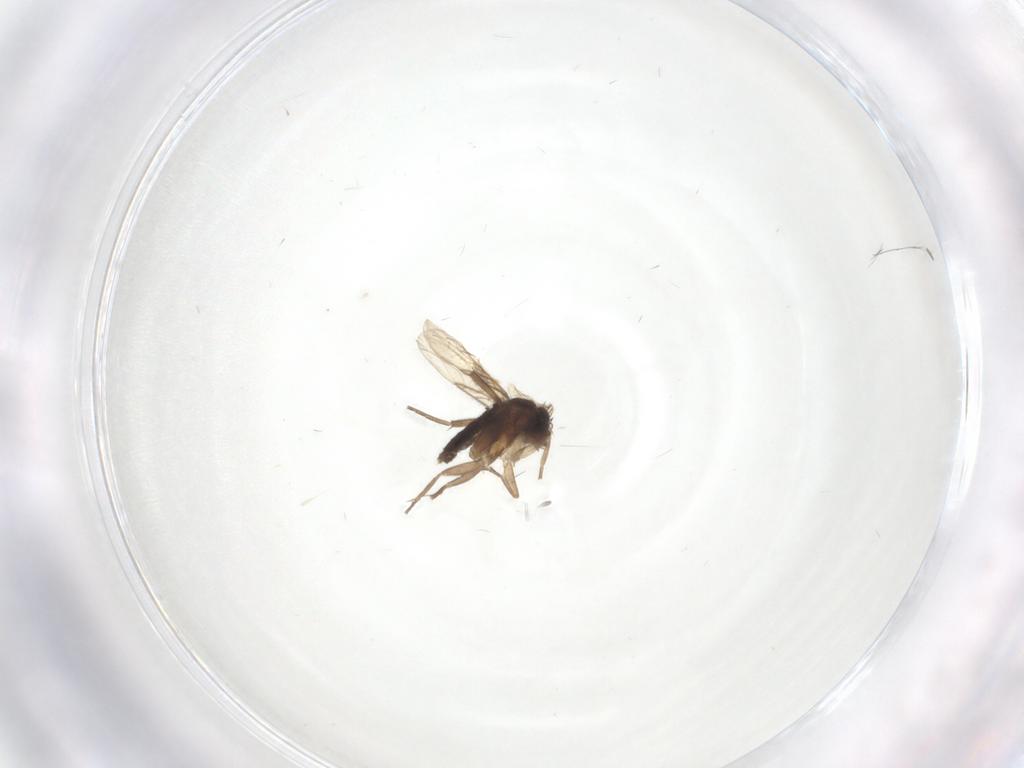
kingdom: Animalia
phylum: Arthropoda
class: Insecta
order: Diptera
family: Phoridae
